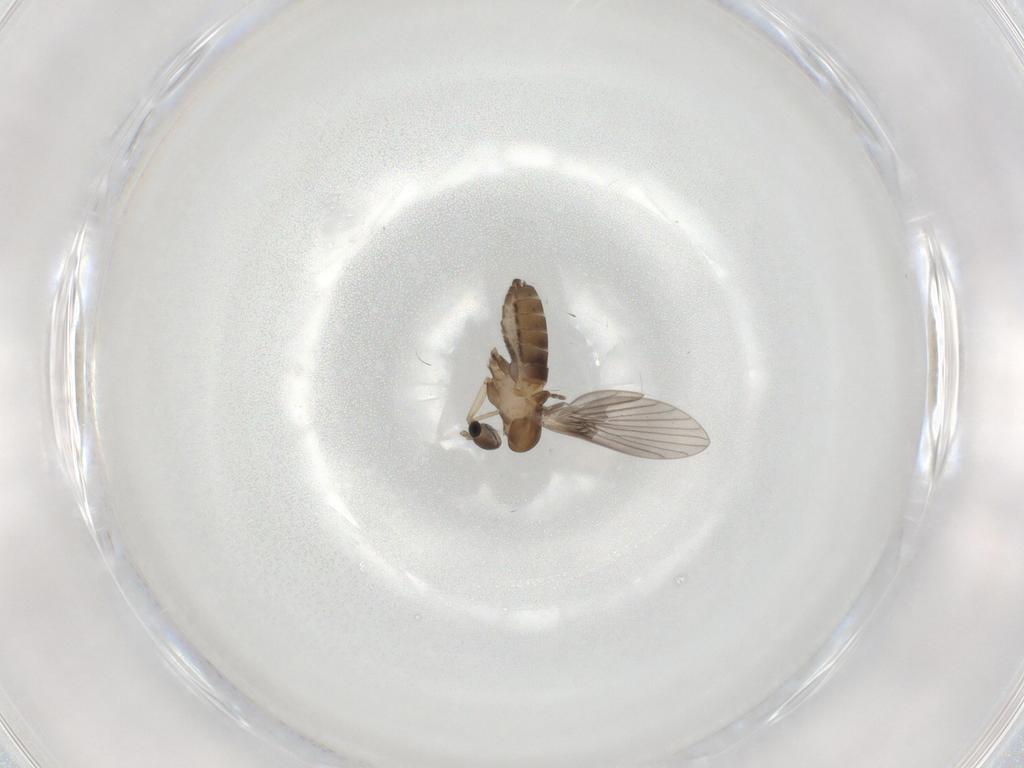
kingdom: Animalia
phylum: Arthropoda
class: Insecta
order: Diptera
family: Psychodidae
